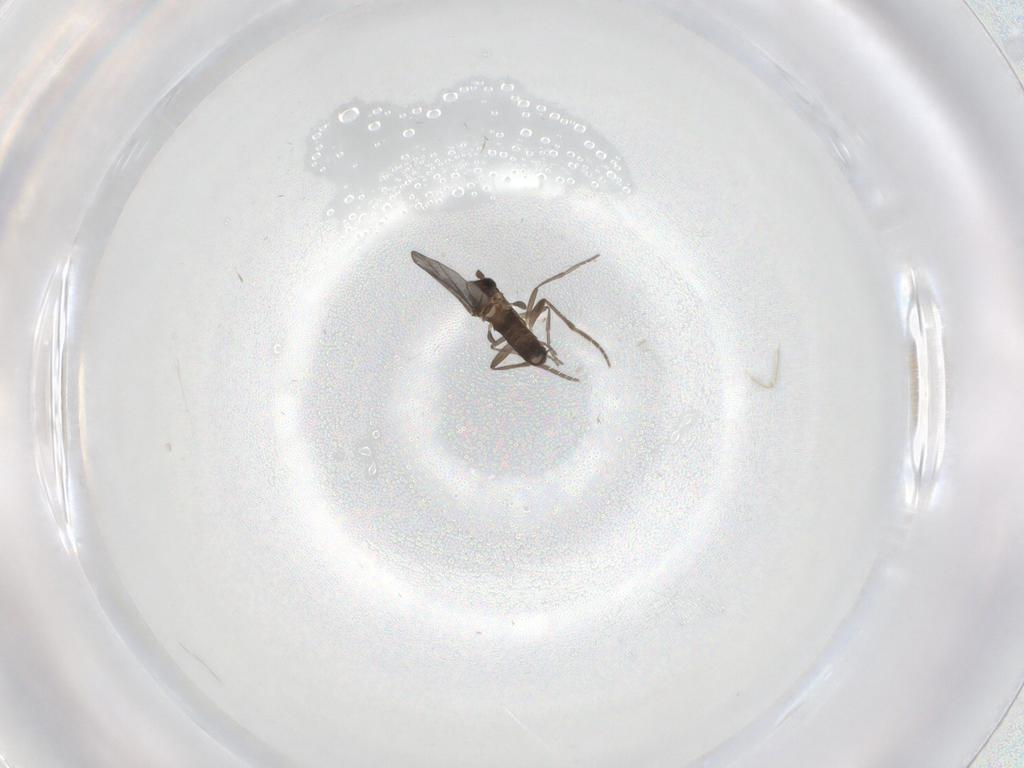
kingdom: Animalia
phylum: Arthropoda
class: Insecta
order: Diptera
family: Phoridae
